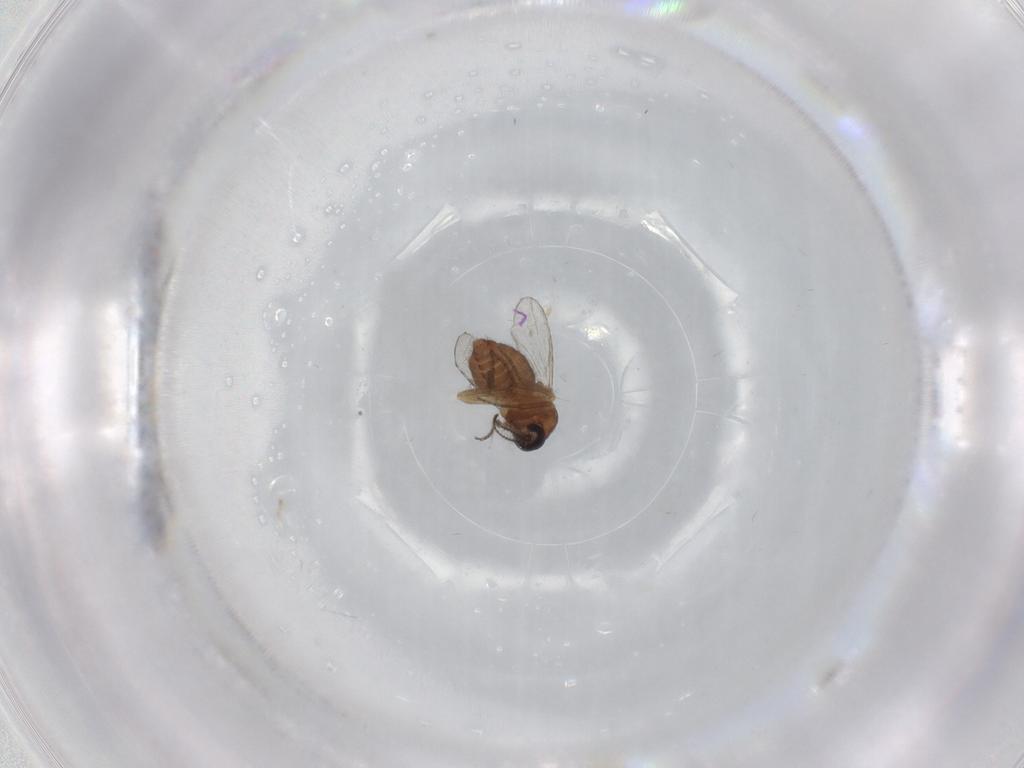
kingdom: Animalia
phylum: Arthropoda
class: Insecta
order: Diptera
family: Ceratopogonidae
